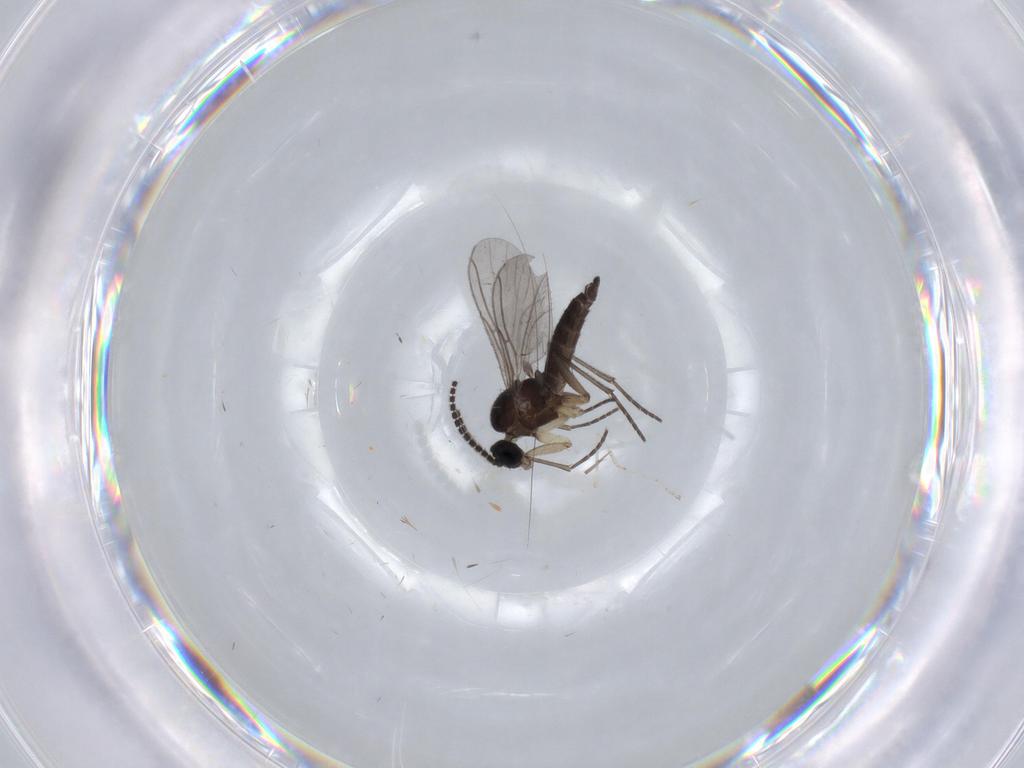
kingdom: Animalia
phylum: Arthropoda
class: Insecta
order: Diptera
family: Sciaridae
